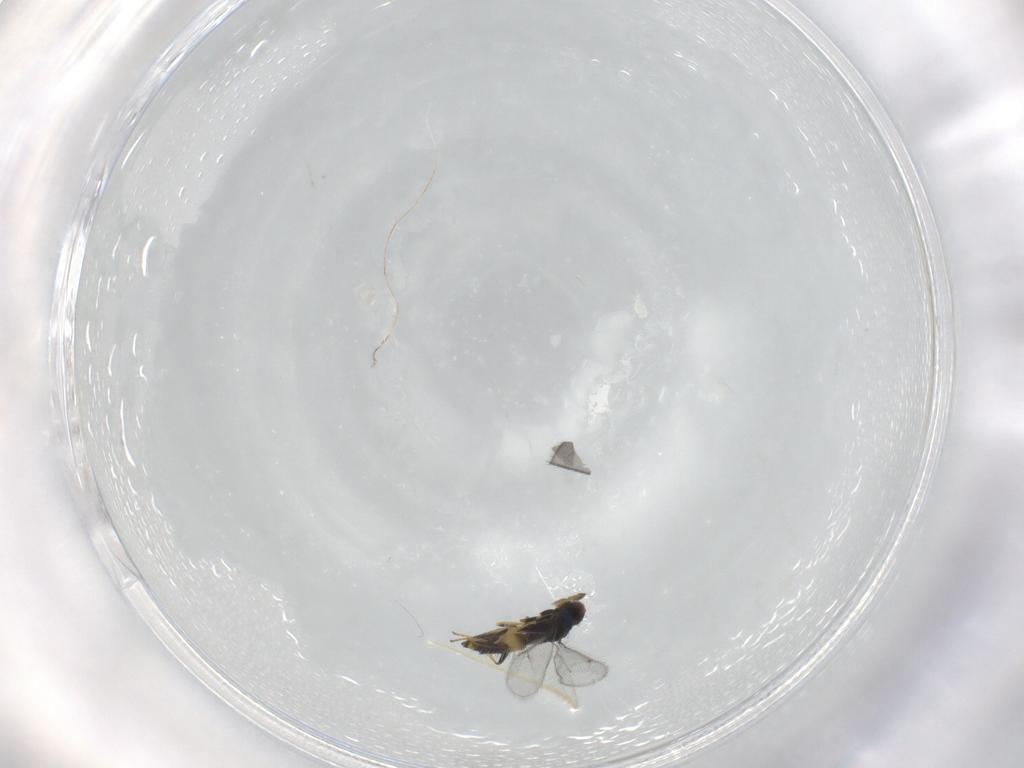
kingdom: Animalia
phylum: Arthropoda
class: Insecta
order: Hymenoptera
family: Eulophidae
